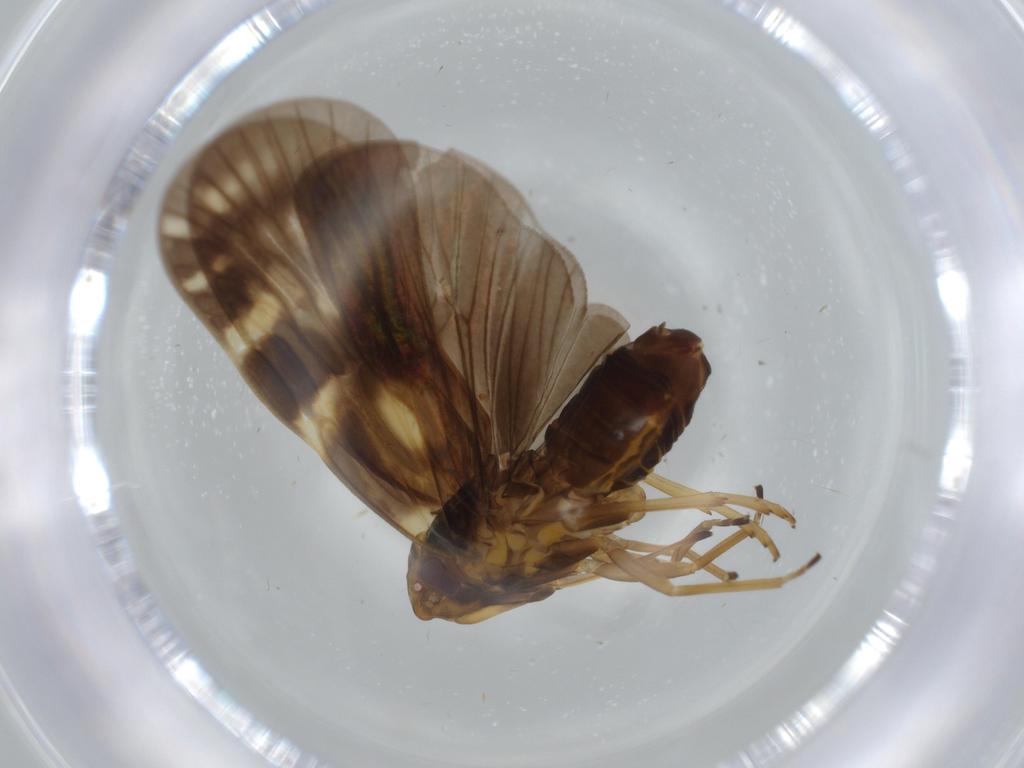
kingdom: Animalia
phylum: Arthropoda
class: Insecta
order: Hemiptera
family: Cixiidae
